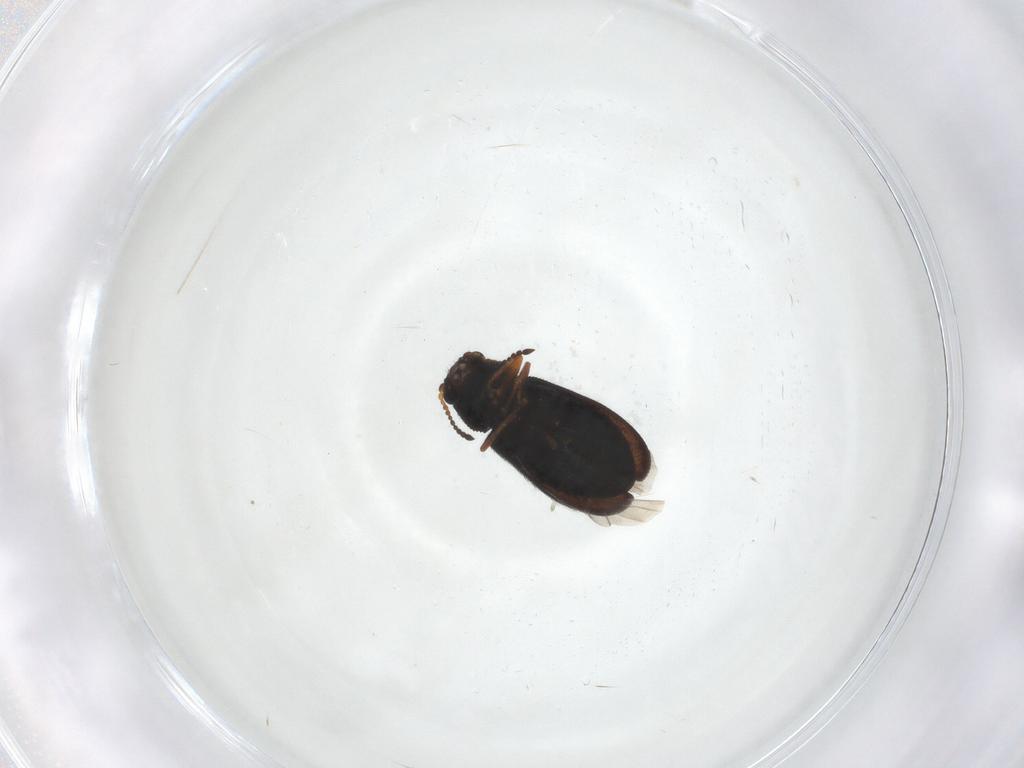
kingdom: Animalia
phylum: Arthropoda
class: Insecta
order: Coleoptera
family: Melyridae
